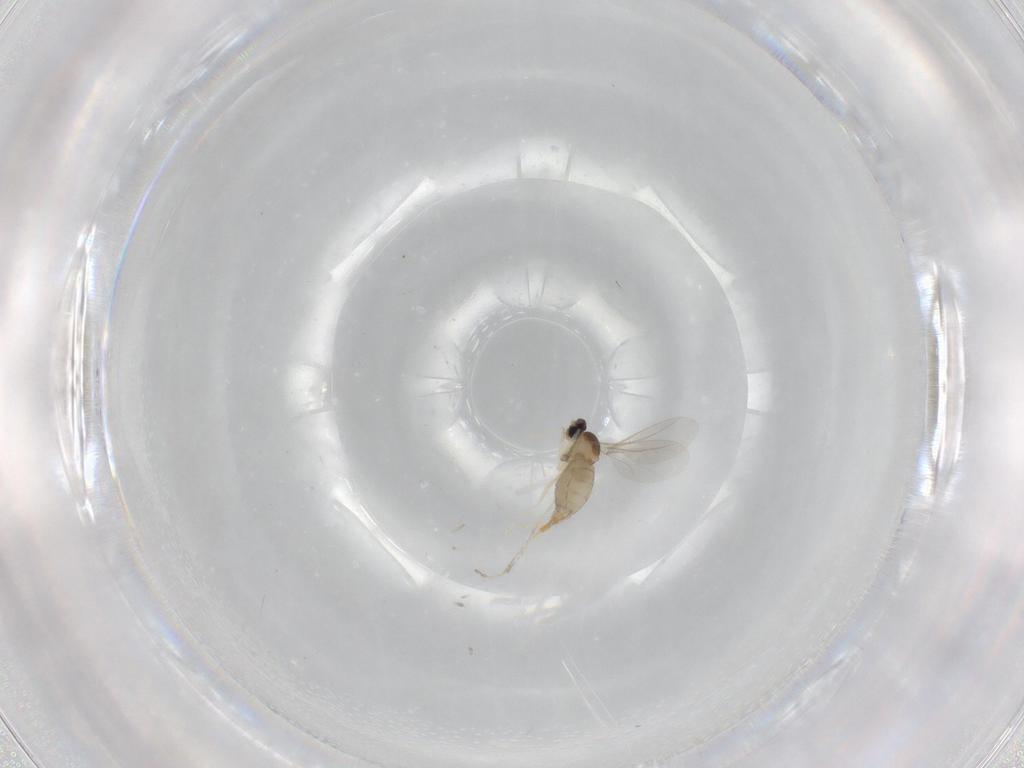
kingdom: Animalia
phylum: Arthropoda
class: Insecta
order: Diptera
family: Cecidomyiidae
